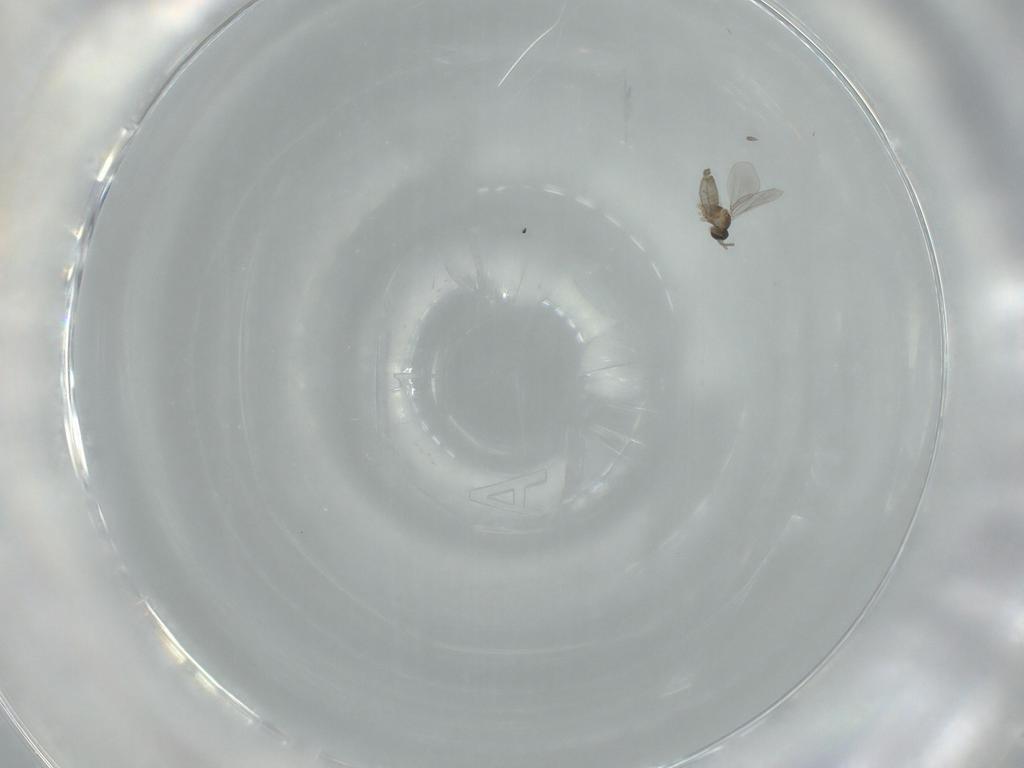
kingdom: Animalia
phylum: Arthropoda
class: Insecta
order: Diptera
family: Cecidomyiidae
